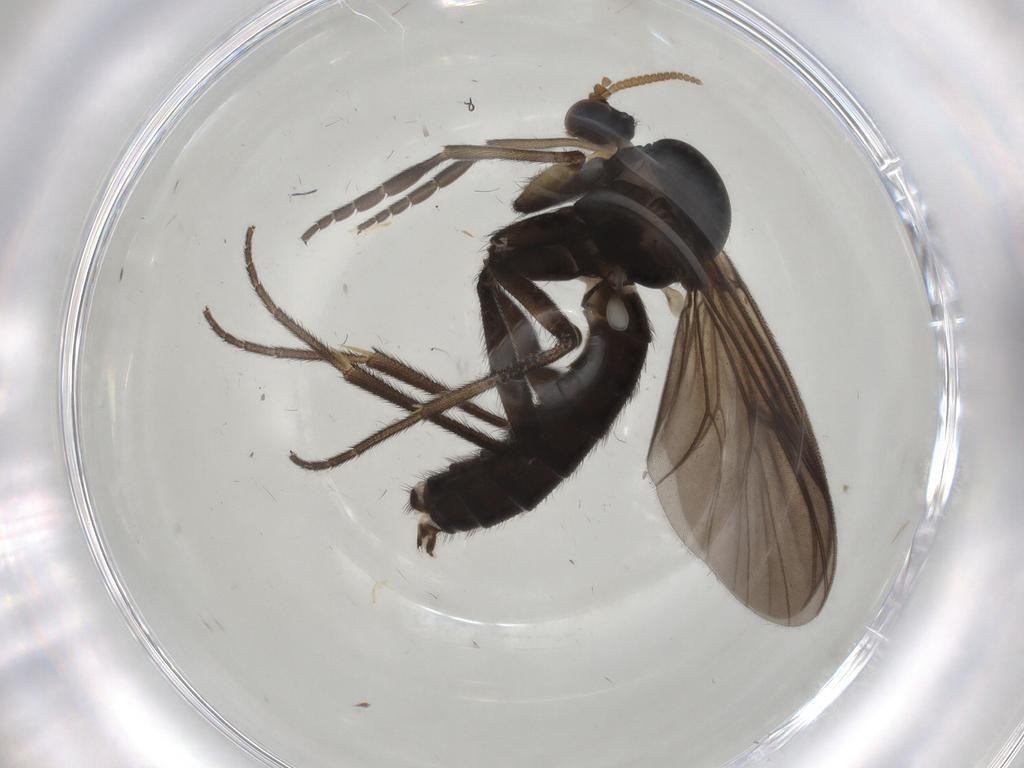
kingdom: Animalia
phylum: Arthropoda
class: Insecta
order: Diptera
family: Mycetophilidae
